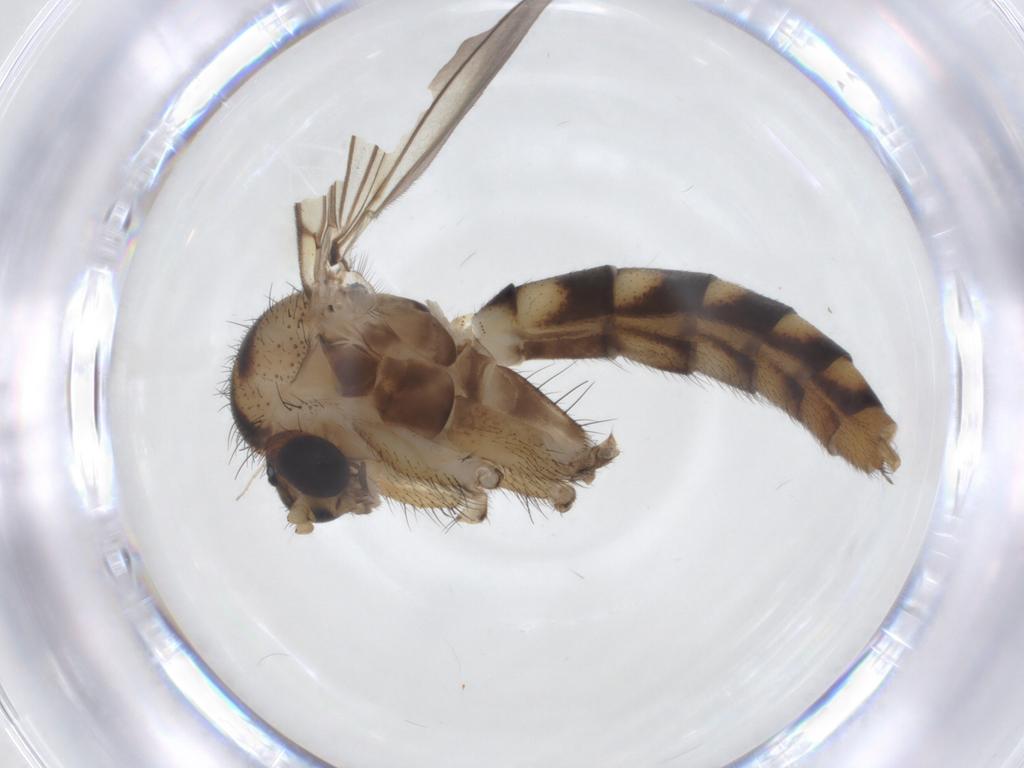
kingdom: Animalia
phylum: Arthropoda
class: Insecta
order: Diptera
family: Mycetophilidae
